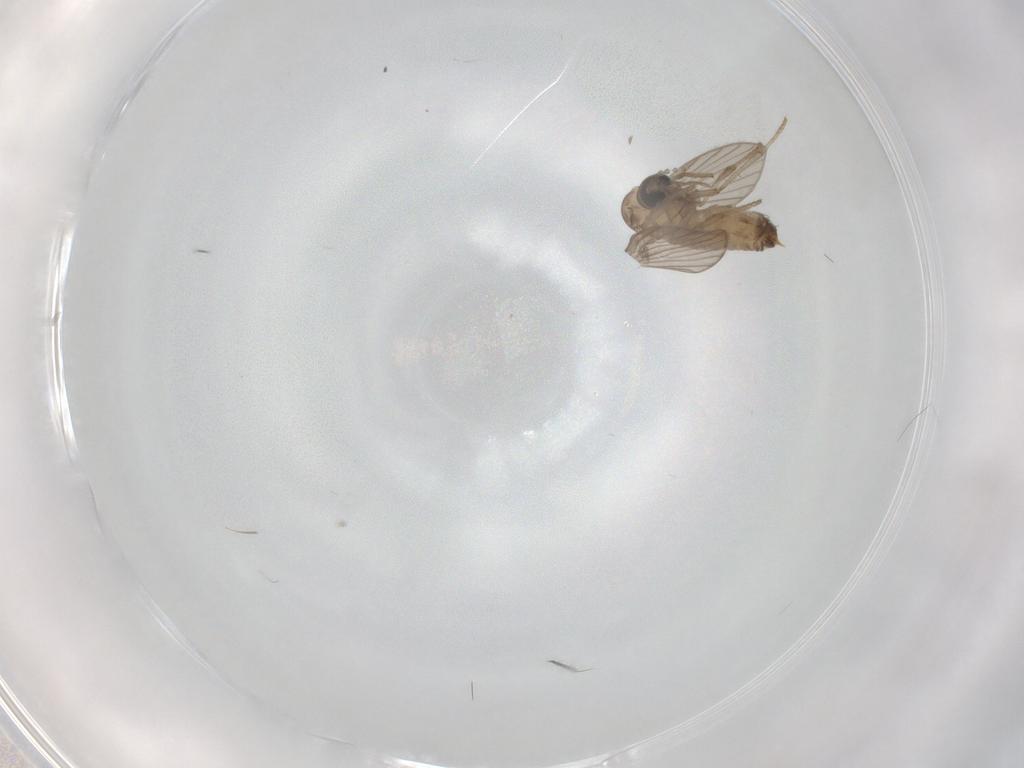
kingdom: Animalia
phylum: Arthropoda
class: Insecta
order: Diptera
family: Psychodidae
